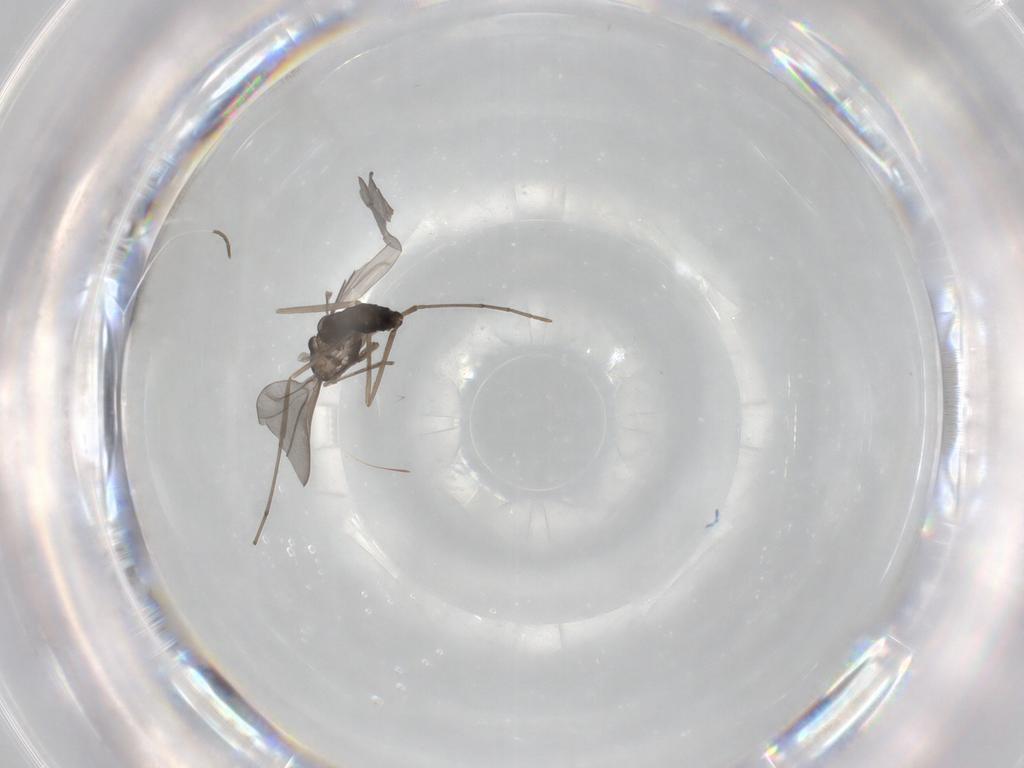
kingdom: Animalia
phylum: Arthropoda
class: Insecta
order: Diptera
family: Cecidomyiidae
